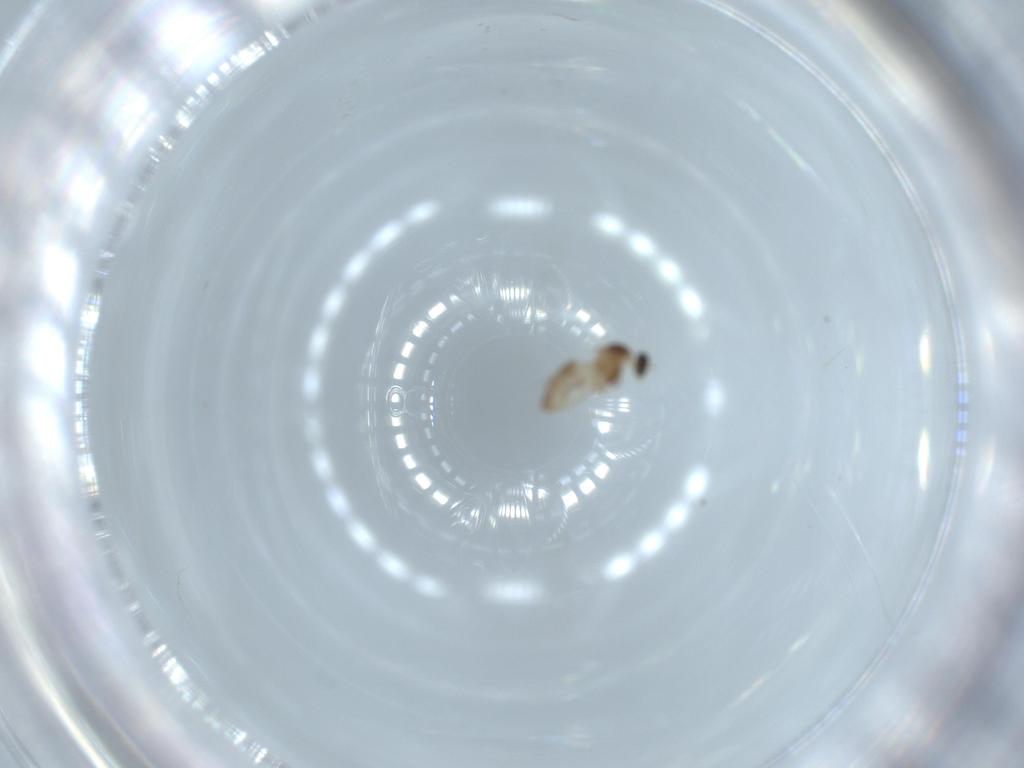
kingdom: Animalia
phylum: Arthropoda
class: Insecta
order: Diptera
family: Cecidomyiidae
